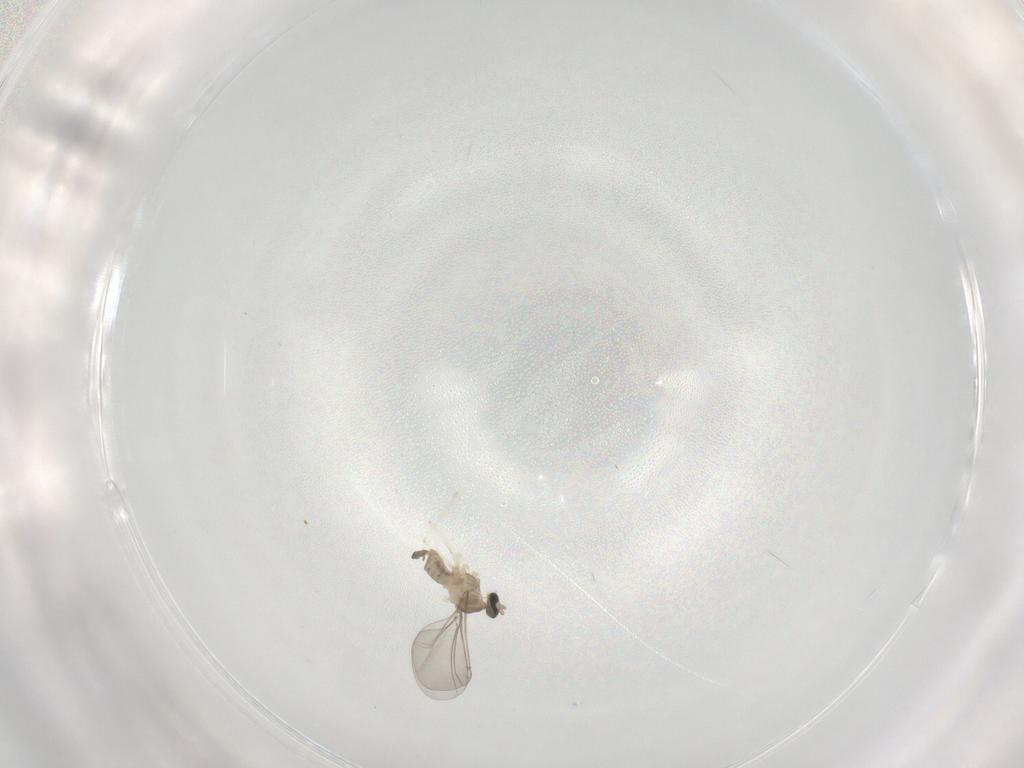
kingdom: Animalia
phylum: Arthropoda
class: Insecta
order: Diptera
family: Cecidomyiidae
